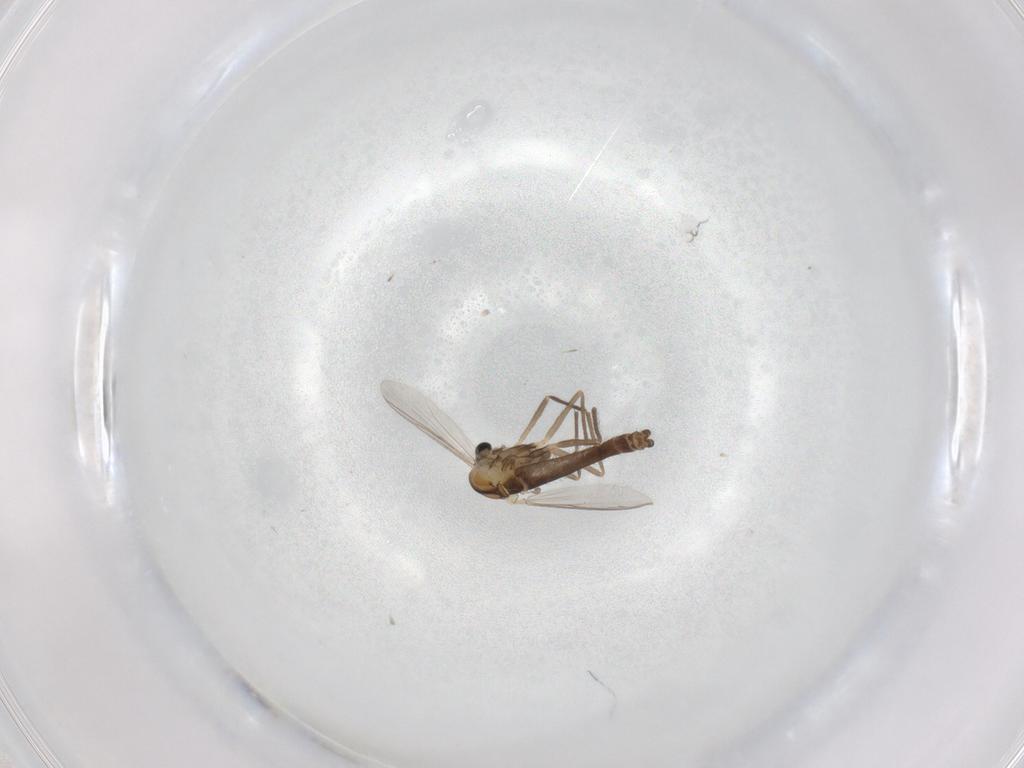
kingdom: Animalia
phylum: Arthropoda
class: Insecta
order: Diptera
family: Chironomidae
